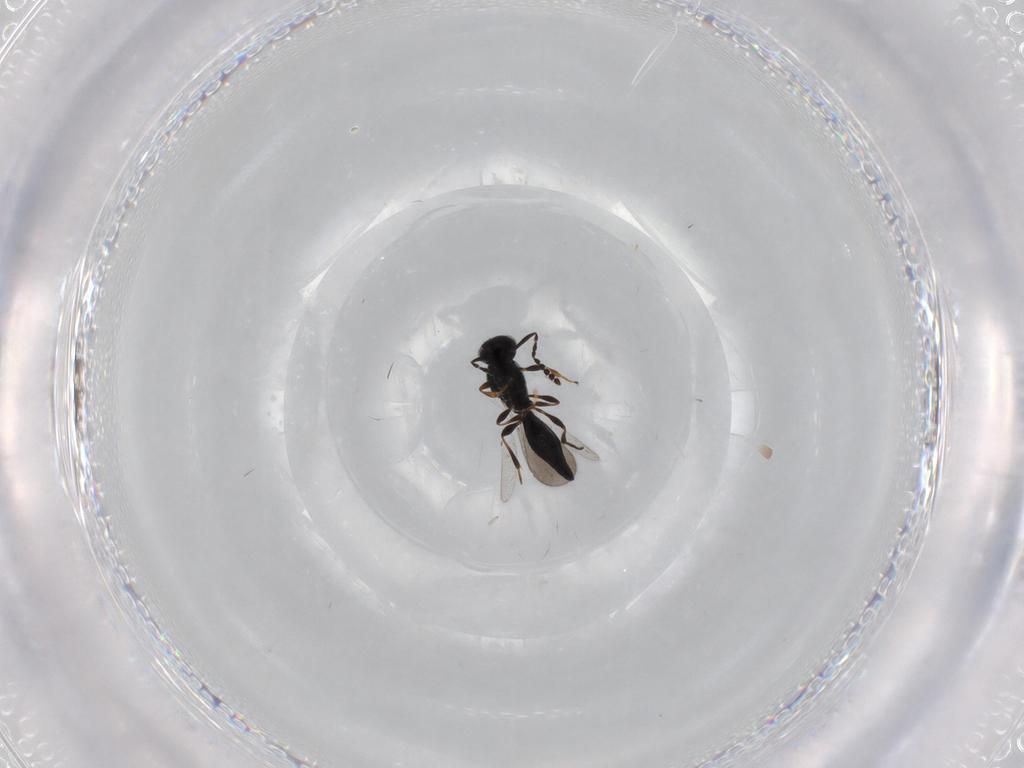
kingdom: Animalia
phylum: Arthropoda
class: Insecta
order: Hymenoptera
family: Platygastridae
